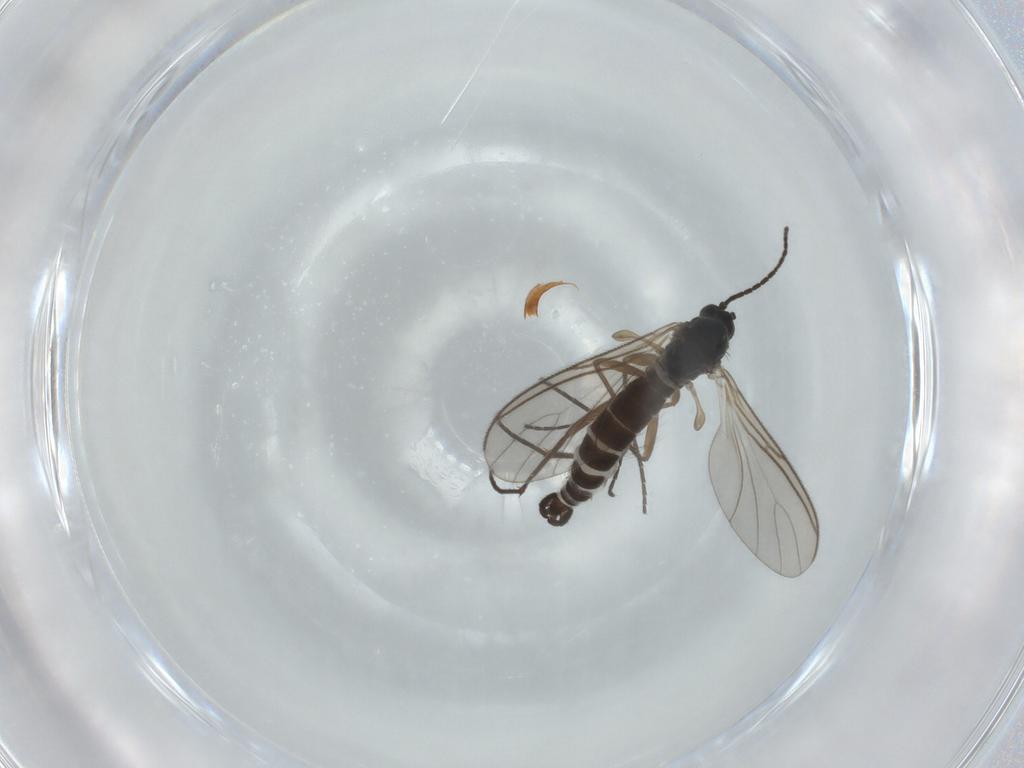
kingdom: Animalia
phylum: Arthropoda
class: Insecta
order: Diptera
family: Sciaridae
